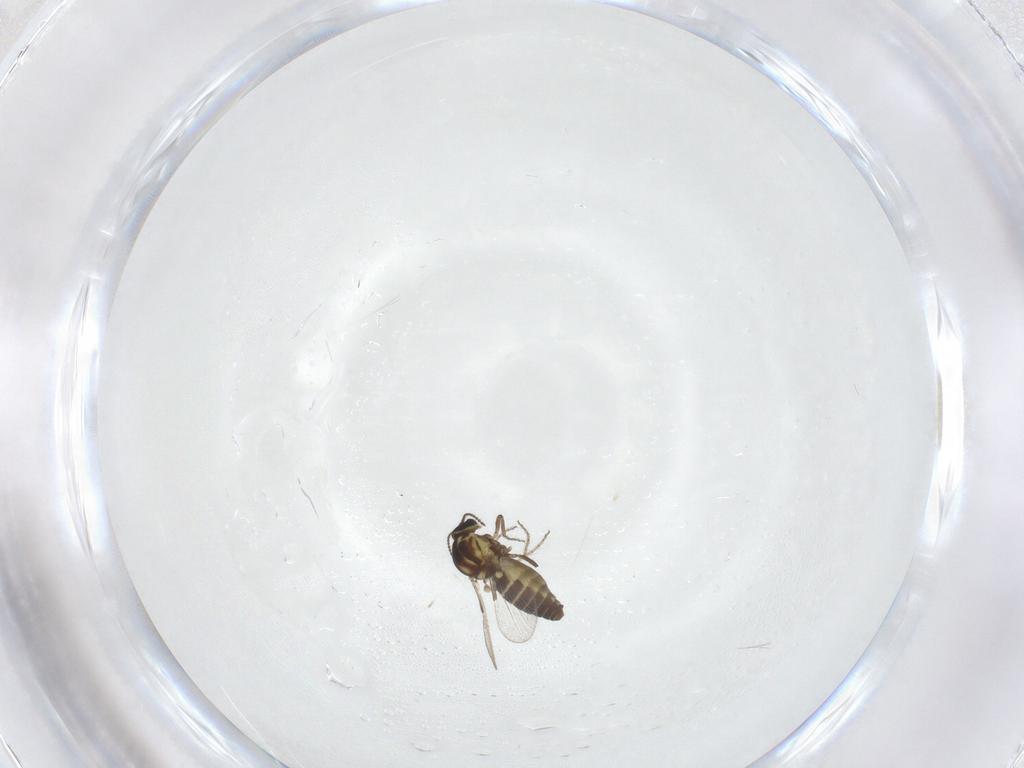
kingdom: Animalia
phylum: Arthropoda
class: Insecta
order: Diptera
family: Ceratopogonidae
